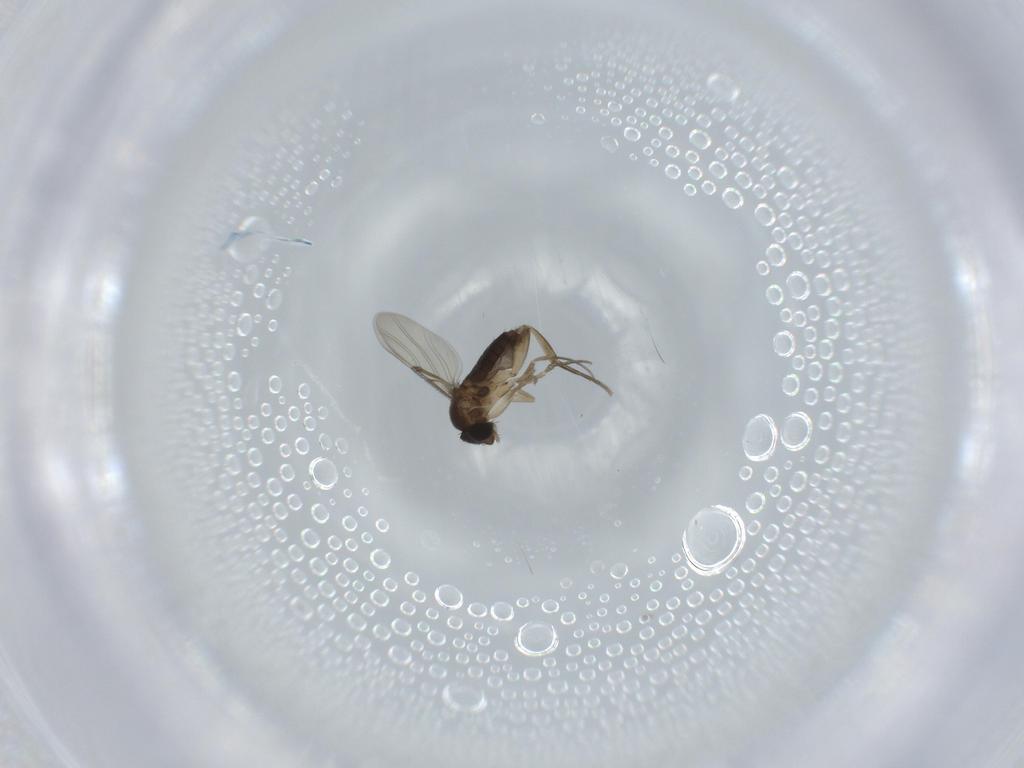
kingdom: Animalia
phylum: Arthropoda
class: Insecta
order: Diptera
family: Phoridae
